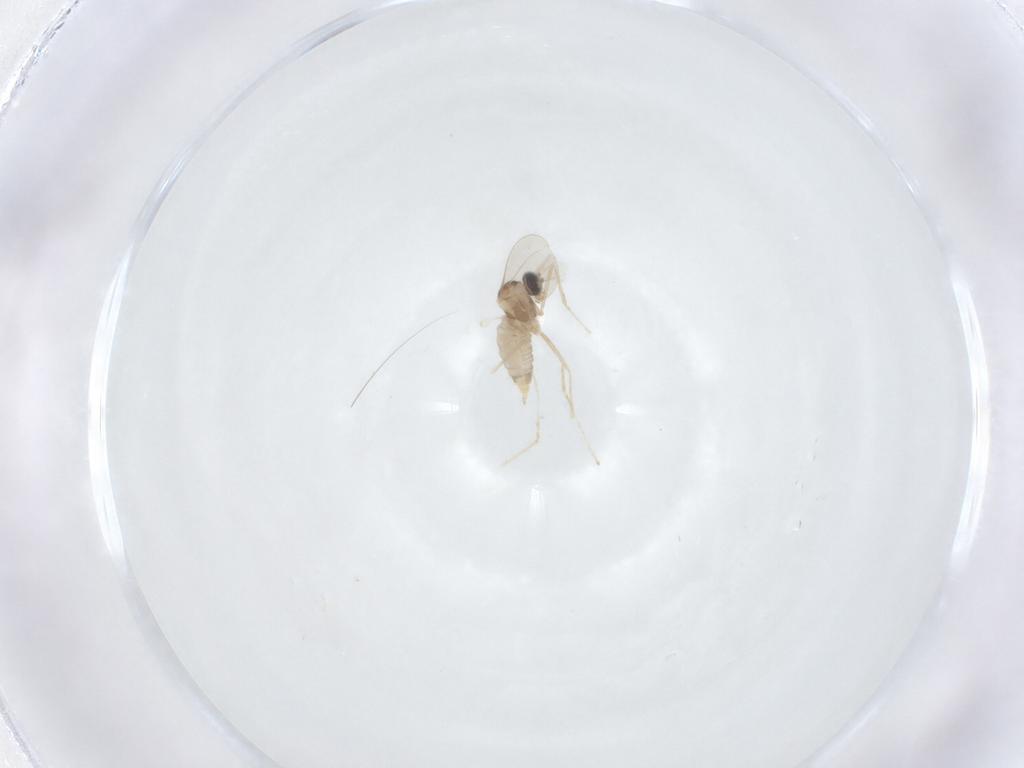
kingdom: Animalia
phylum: Arthropoda
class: Insecta
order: Diptera
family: Cecidomyiidae
